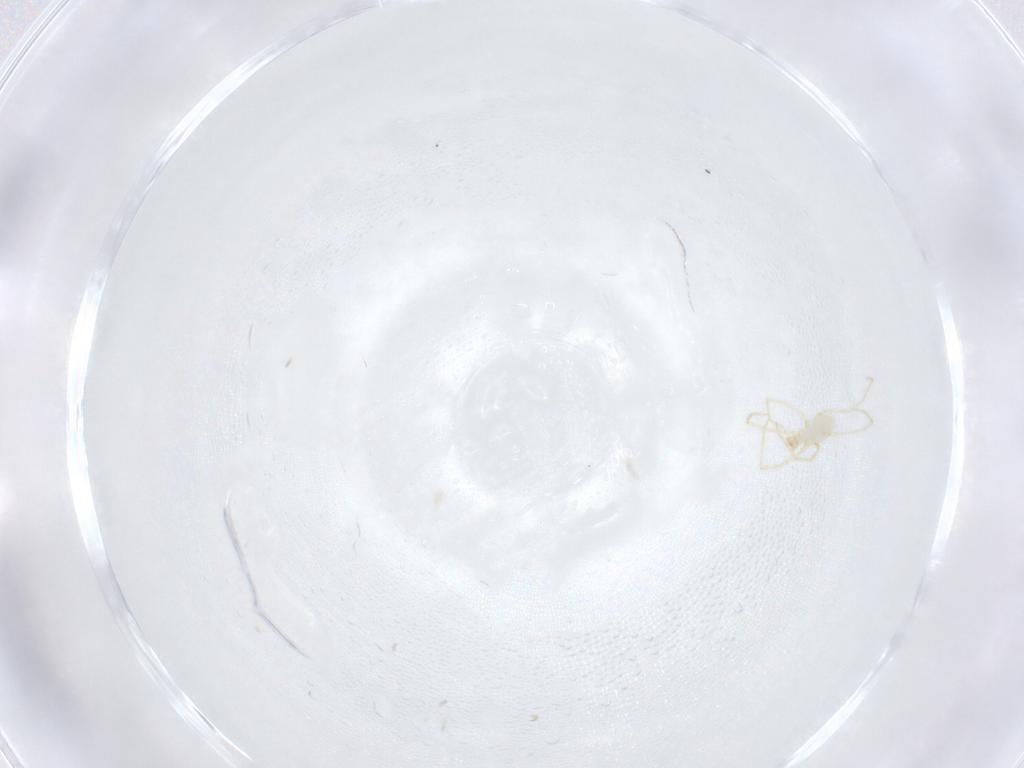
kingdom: Animalia
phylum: Arthropoda
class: Arachnida
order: Trombidiformes
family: Erythraeidae
